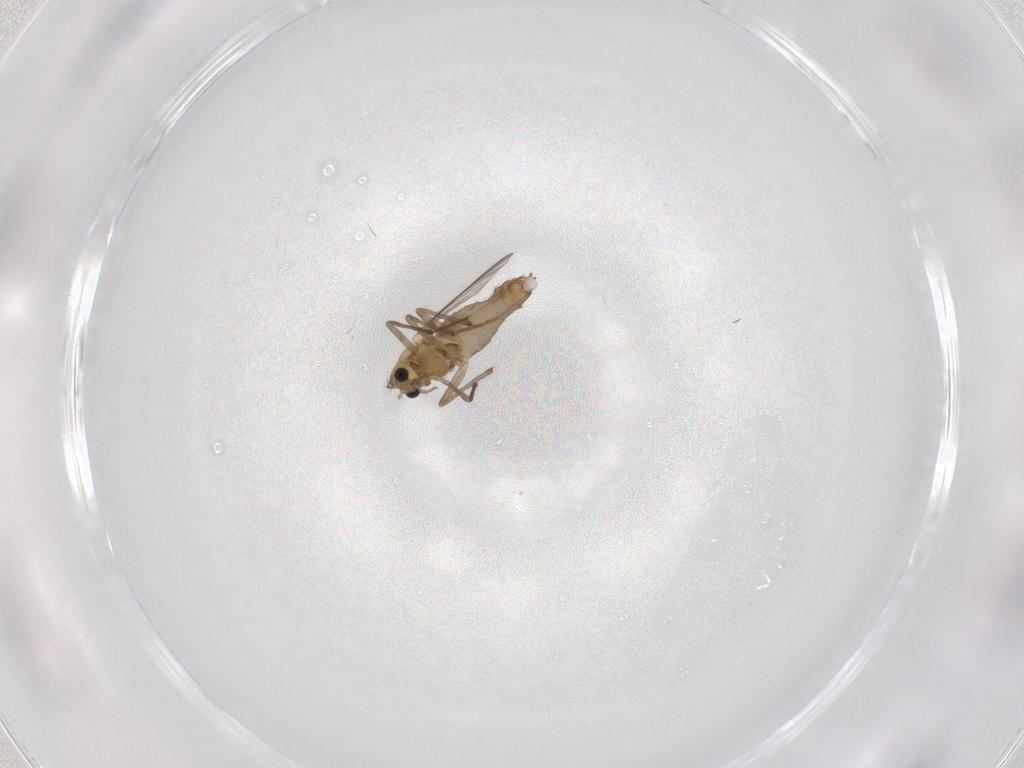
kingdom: Animalia
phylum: Arthropoda
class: Insecta
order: Diptera
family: Chironomidae
